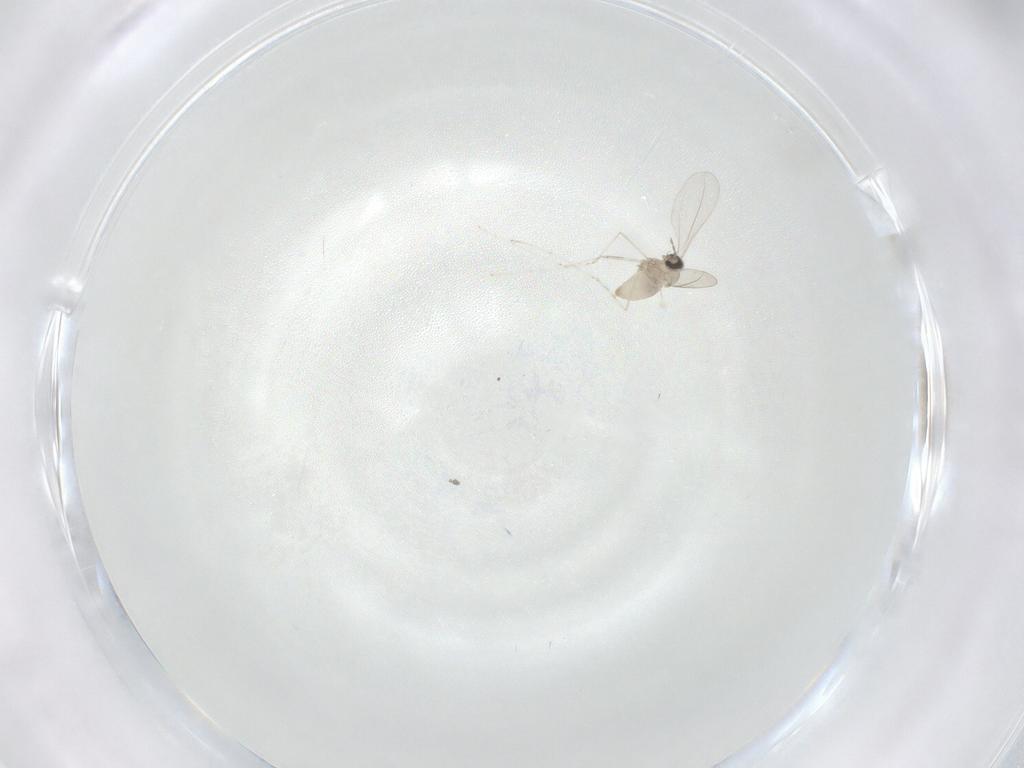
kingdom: Animalia
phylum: Arthropoda
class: Insecta
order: Diptera
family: Cecidomyiidae
